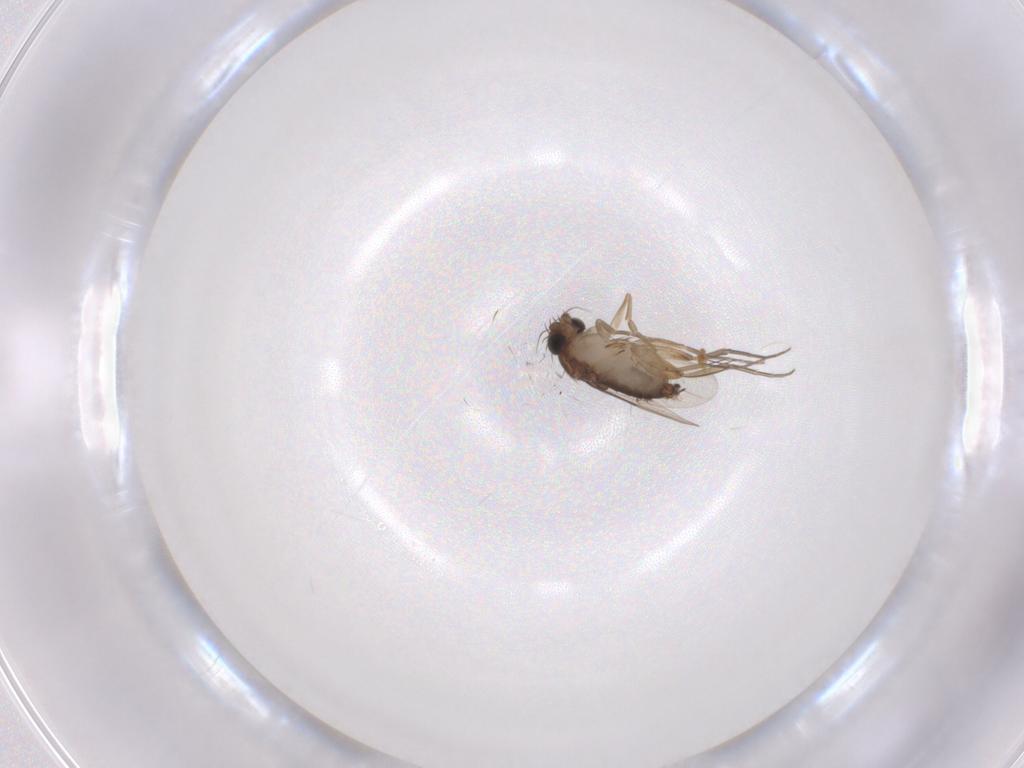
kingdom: Animalia
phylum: Arthropoda
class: Insecta
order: Diptera
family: Phoridae
